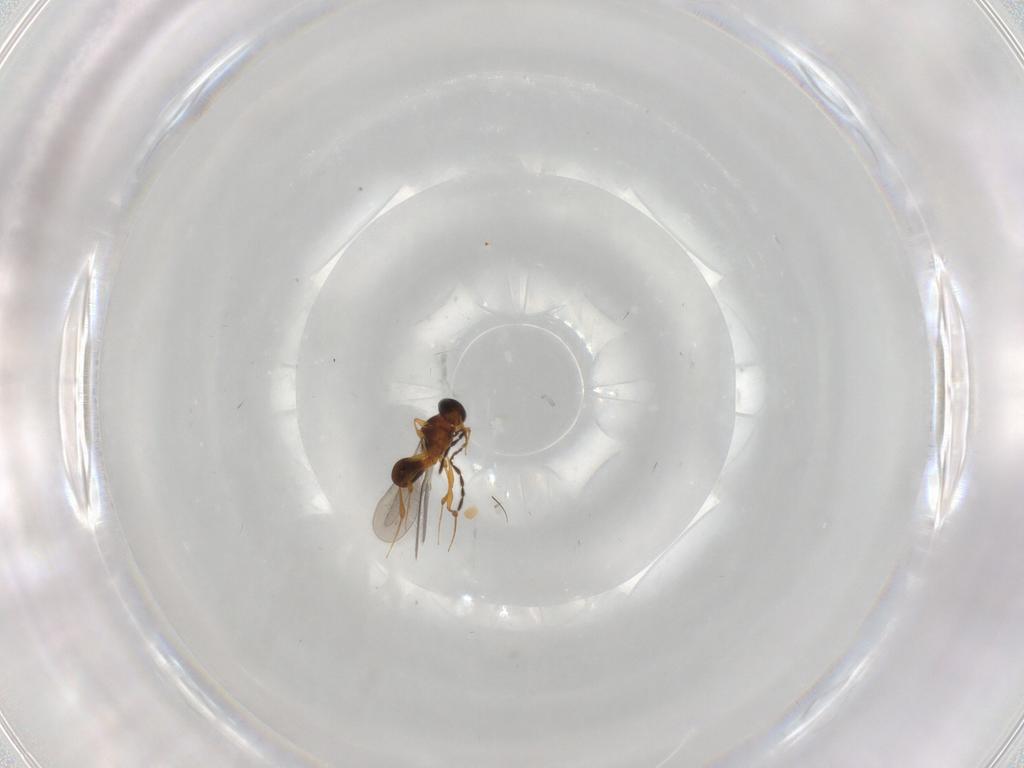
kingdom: Animalia
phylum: Arthropoda
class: Insecta
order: Hymenoptera
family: Platygastridae
